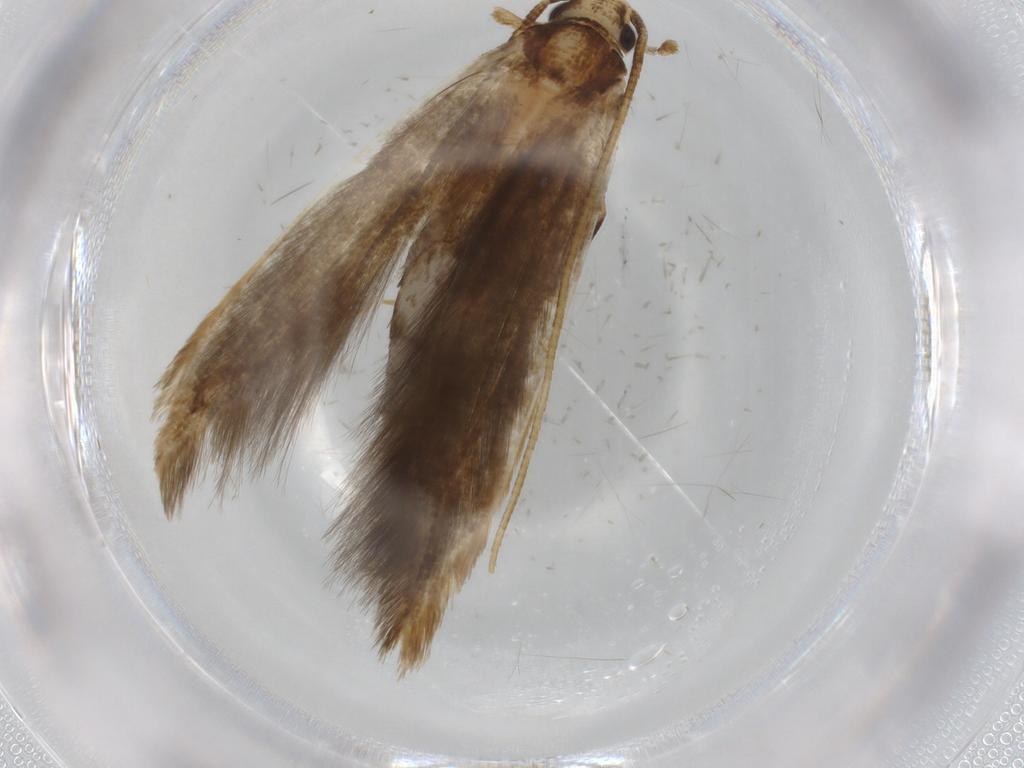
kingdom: Animalia
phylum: Arthropoda
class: Insecta
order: Lepidoptera
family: Tineidae
